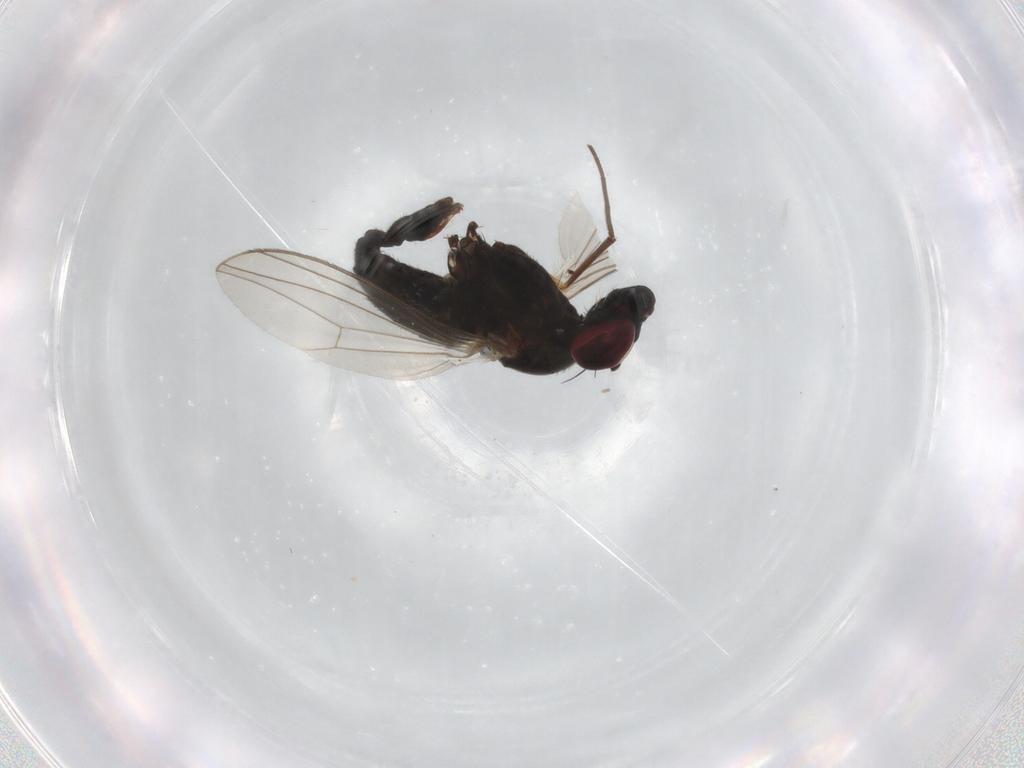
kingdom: Animalia
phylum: Arthropoda
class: Insecta
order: Diptera
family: Dolichopodidae
